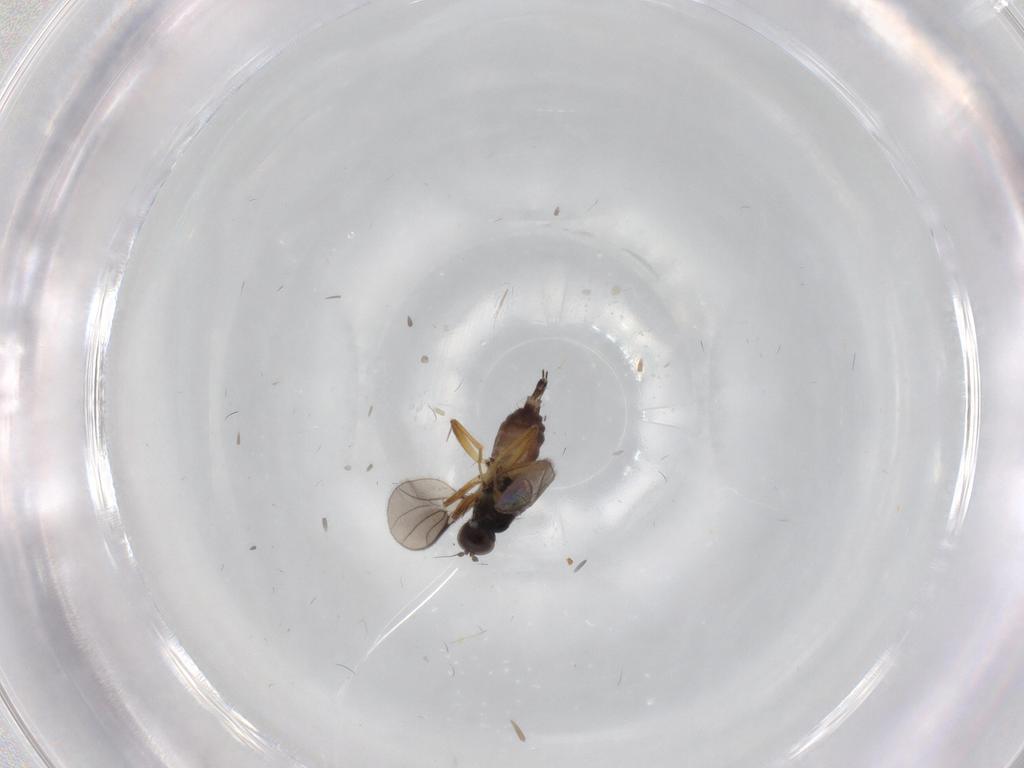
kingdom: Animalia
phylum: Arthropoda
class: Insecta
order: Diptera
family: Hybotidae
